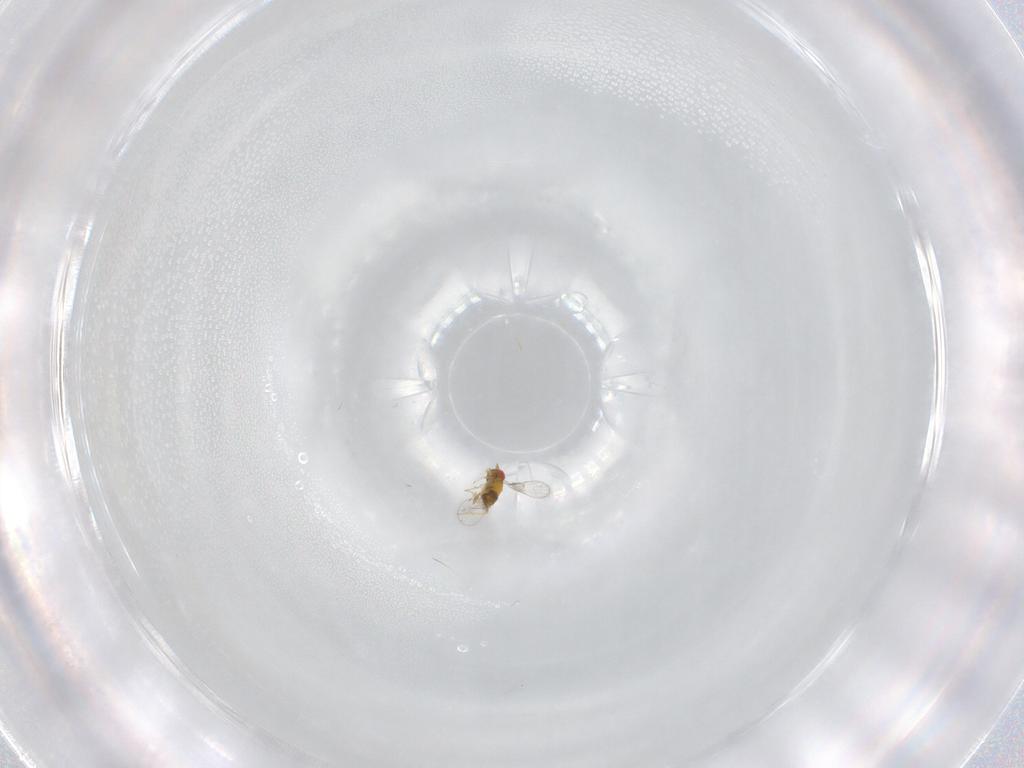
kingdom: Animalia
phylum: Arthropoda
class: Insecta
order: Hymenoptera
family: Trichogrammatidae
